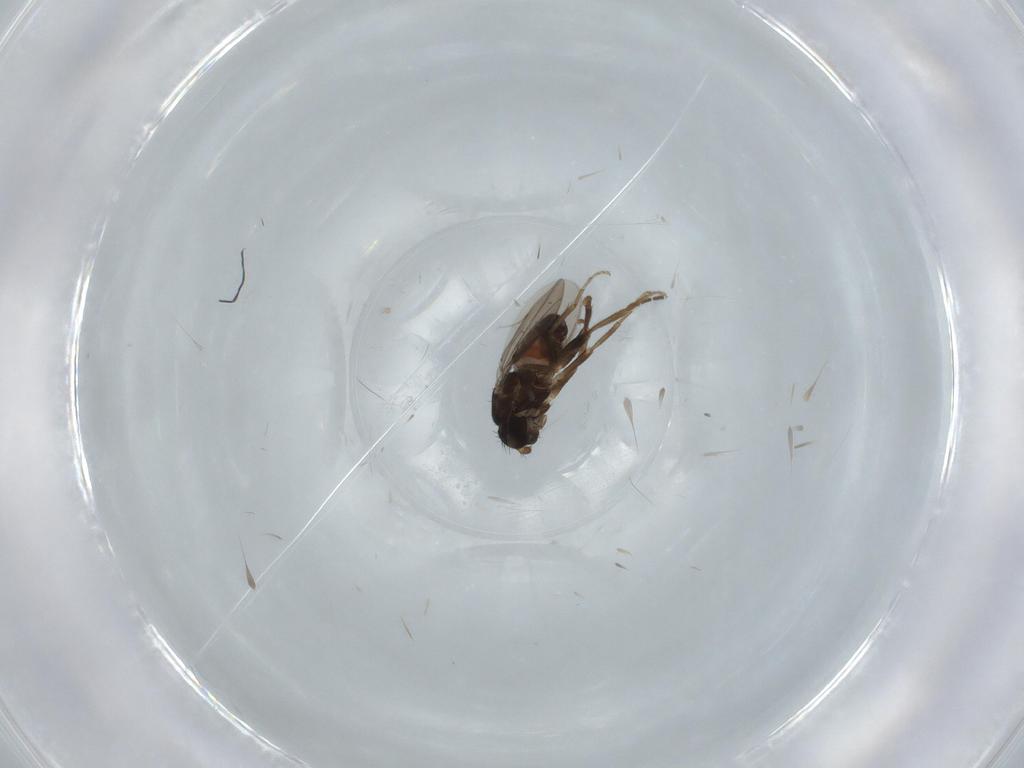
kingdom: Animalia
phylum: Arthropoda
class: Insecta
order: Diptera
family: Sphaeroceridae
